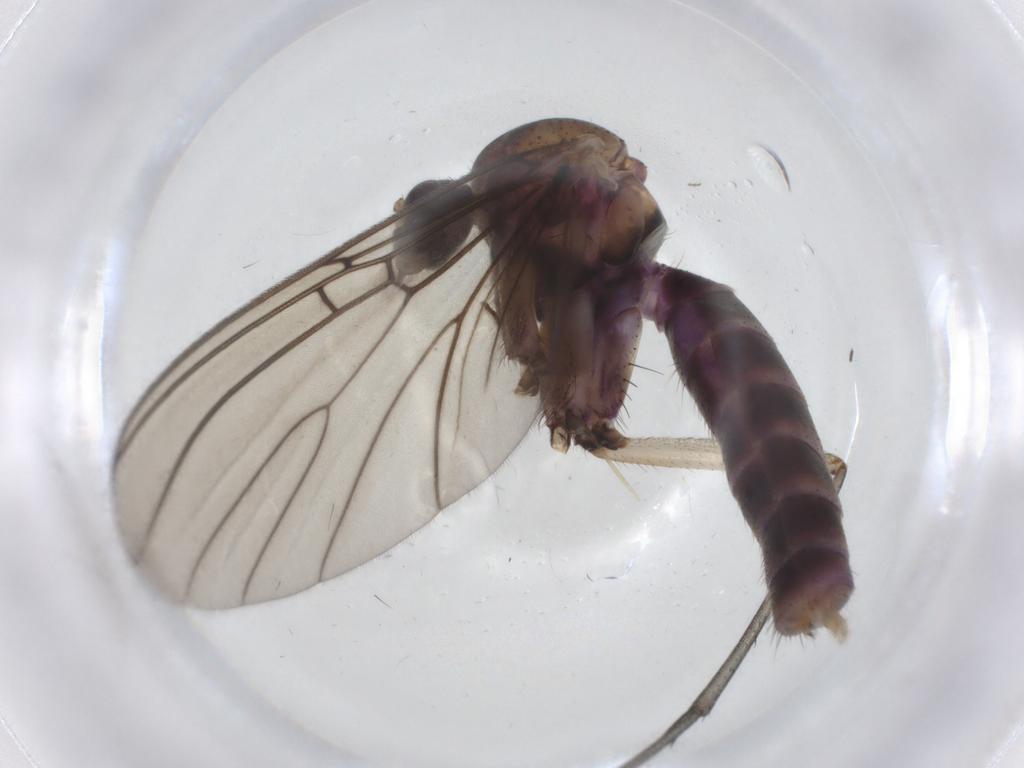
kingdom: Animalia
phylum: Arthropoda
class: Insecta
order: Diptera
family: Mycetophilidae
